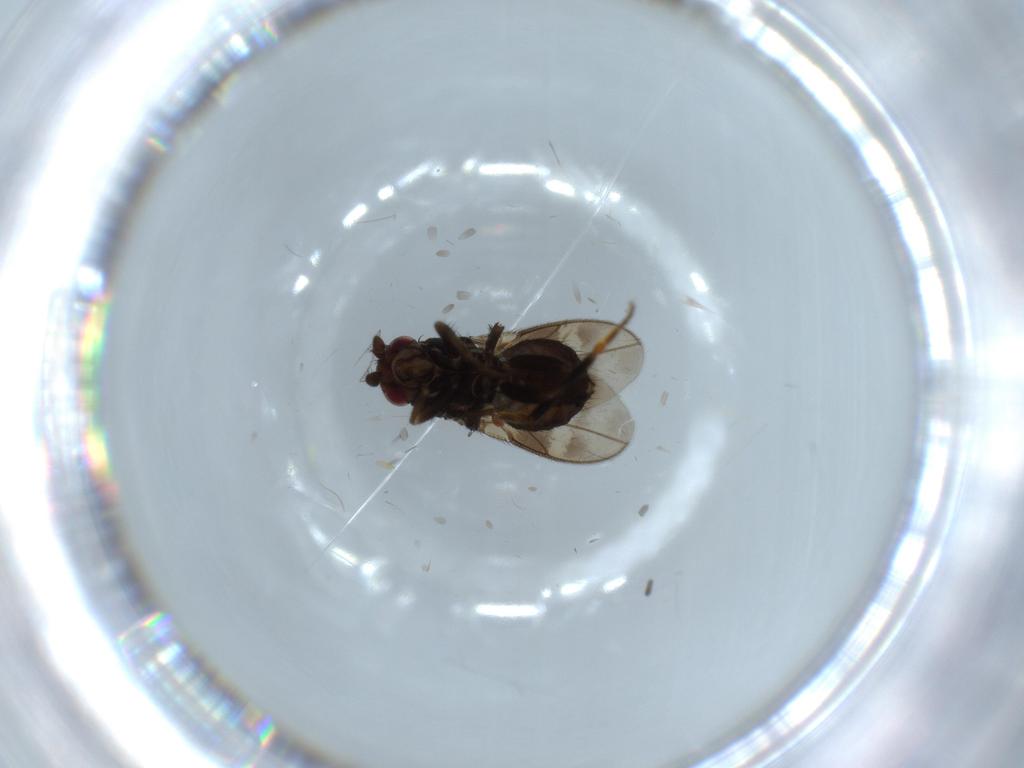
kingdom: Animalia
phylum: Arthropoda
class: Insecta
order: Diptera
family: Sphaeroceridae
